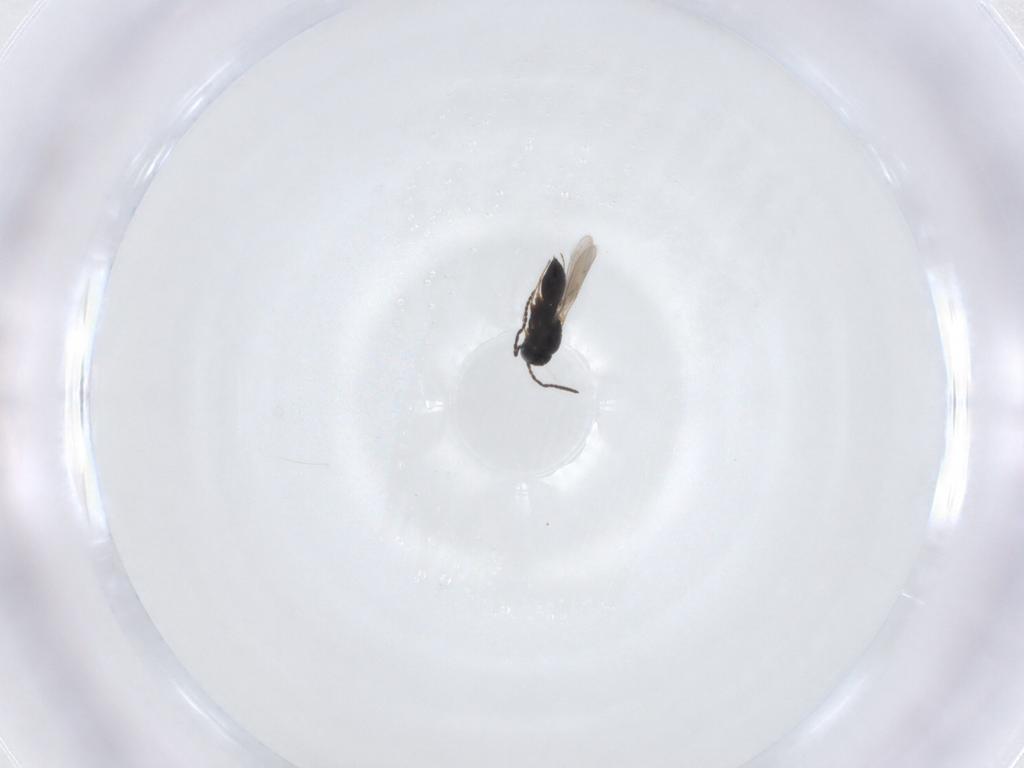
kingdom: Animalia
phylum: Arthropoda
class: Insecta
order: Hymenoptera
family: Scelionidae
